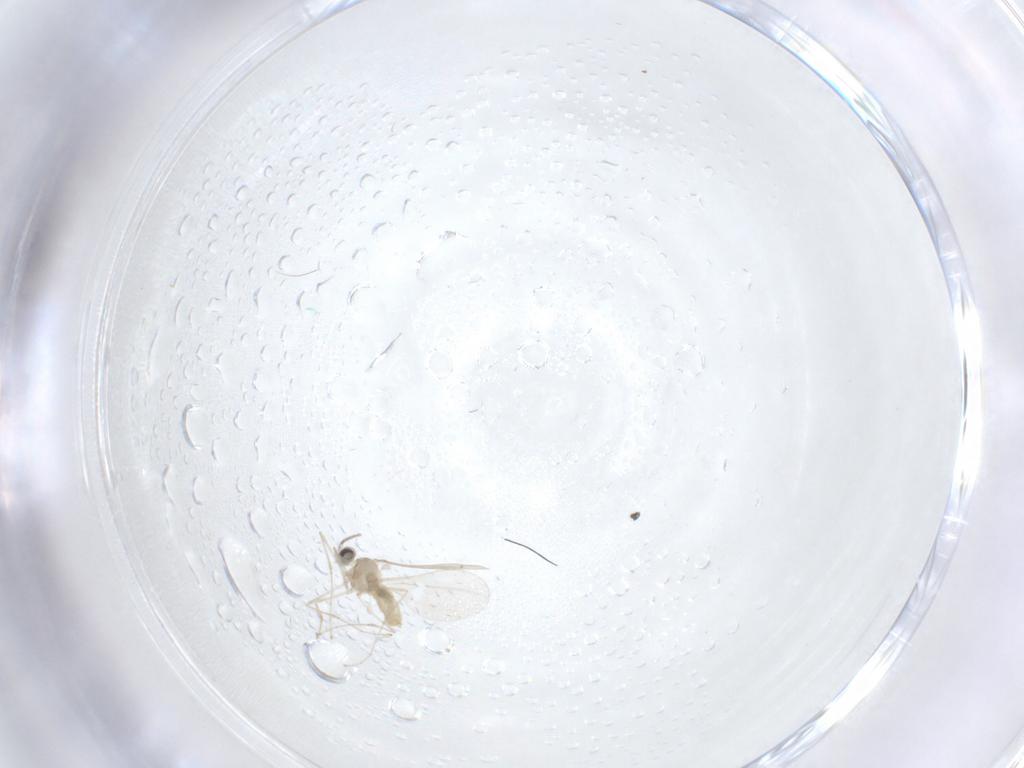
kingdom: Animalia
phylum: Arthropoda
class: Insecta
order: Diptera
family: Cecidomyiidae
